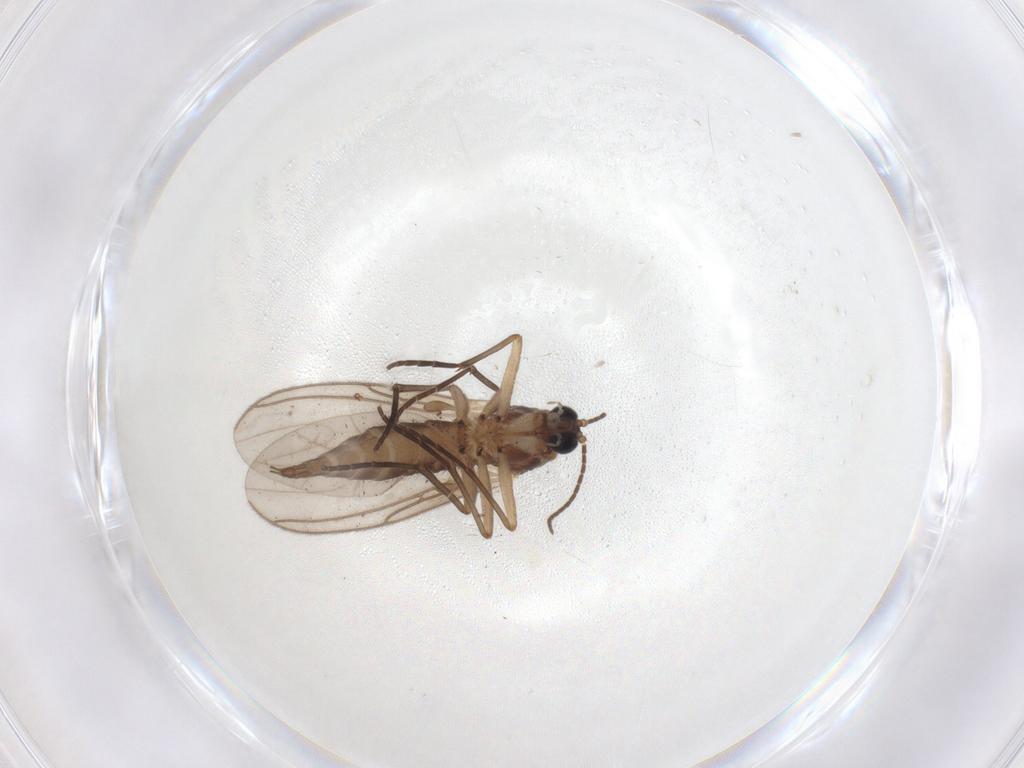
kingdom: Animalia
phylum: Arthropoda
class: Insecta
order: Diptera
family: Sciaridae
